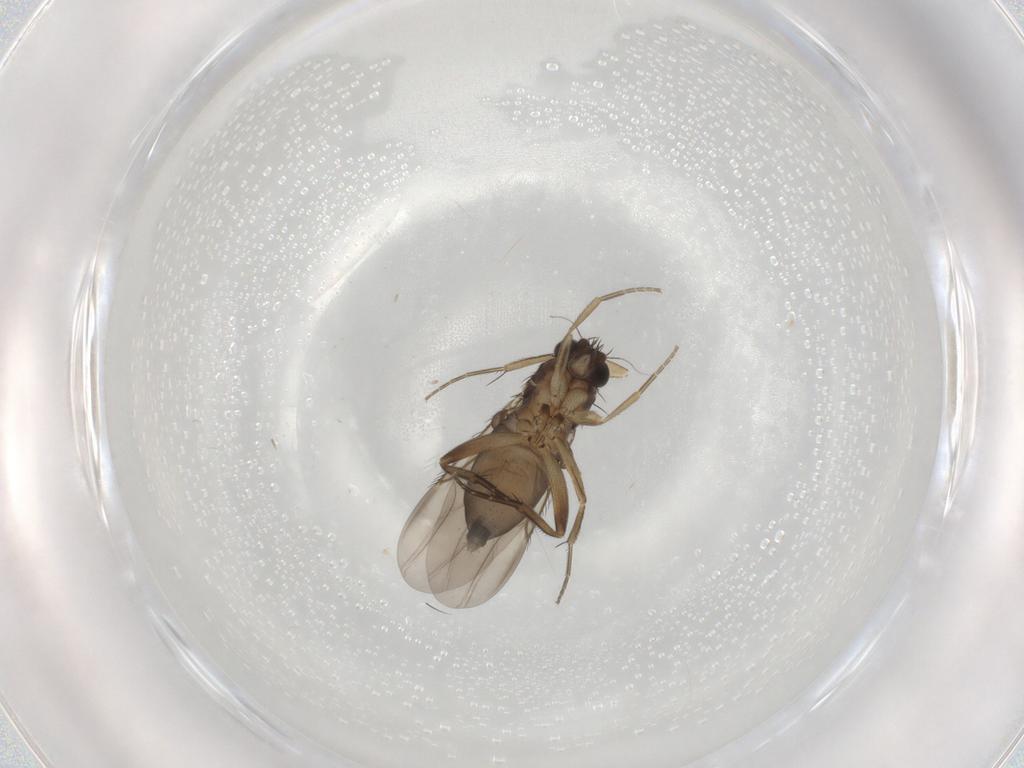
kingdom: Animalia
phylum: Arthropoda
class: Insecta
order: Diptera
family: Phoridae
